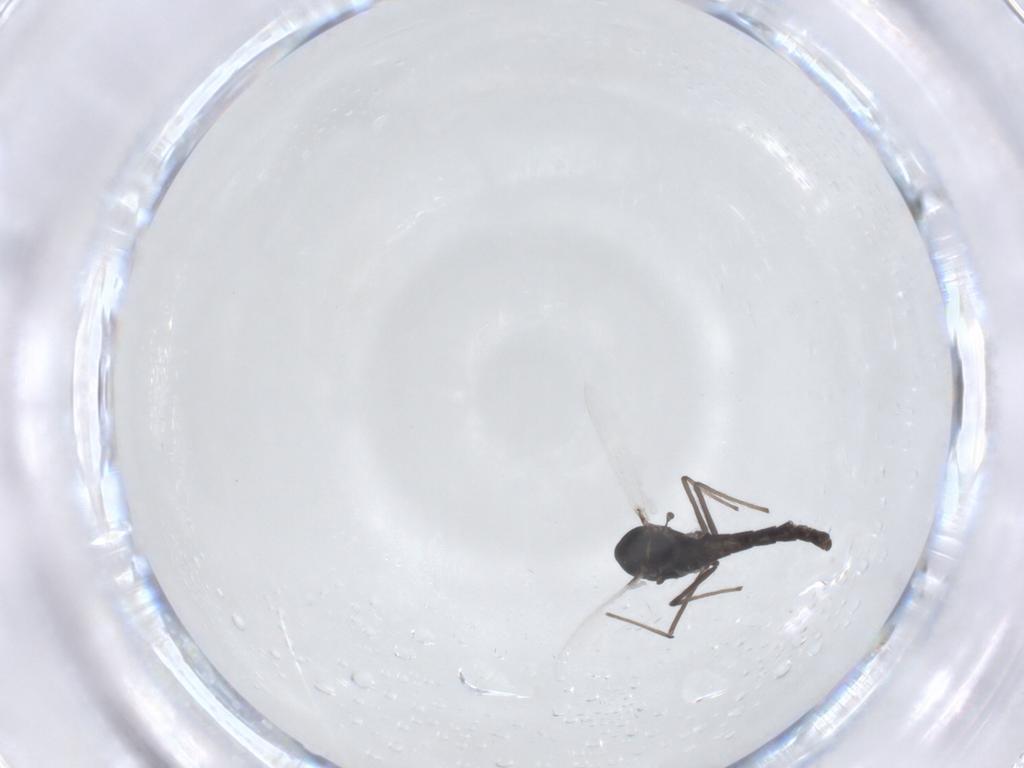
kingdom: Animalia
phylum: Arthropoda
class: Insecta
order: Diptera
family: Chironomidae
